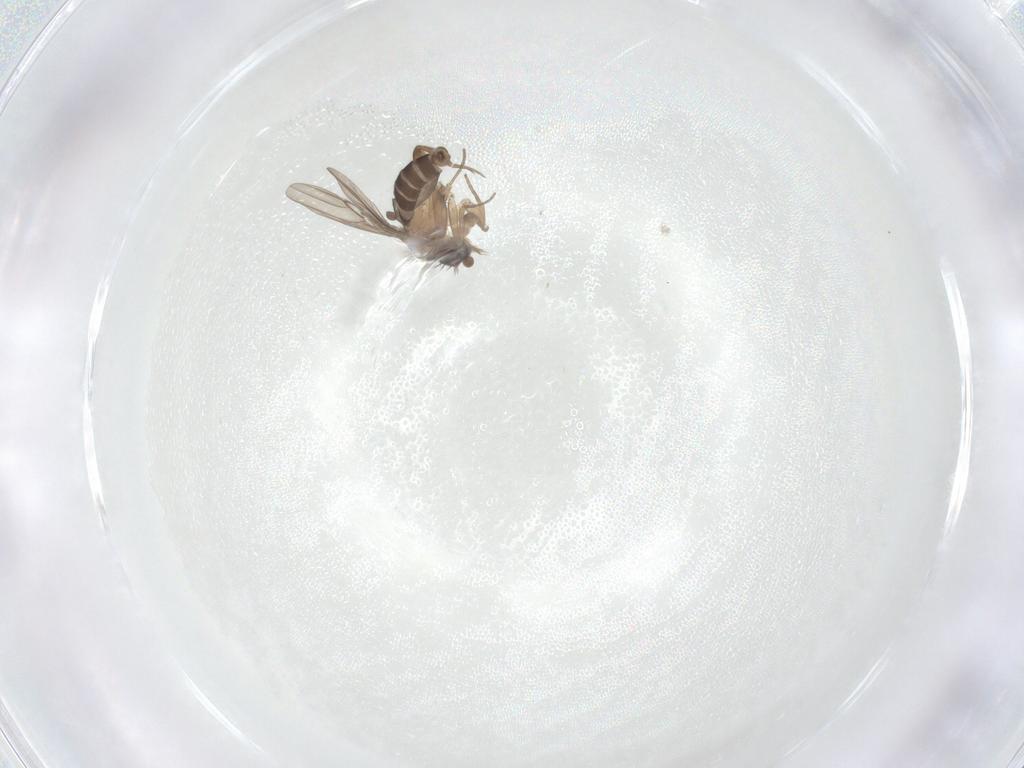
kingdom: Animalia
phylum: Arthropoda
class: Insecta
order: Diptera
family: Phoridae
